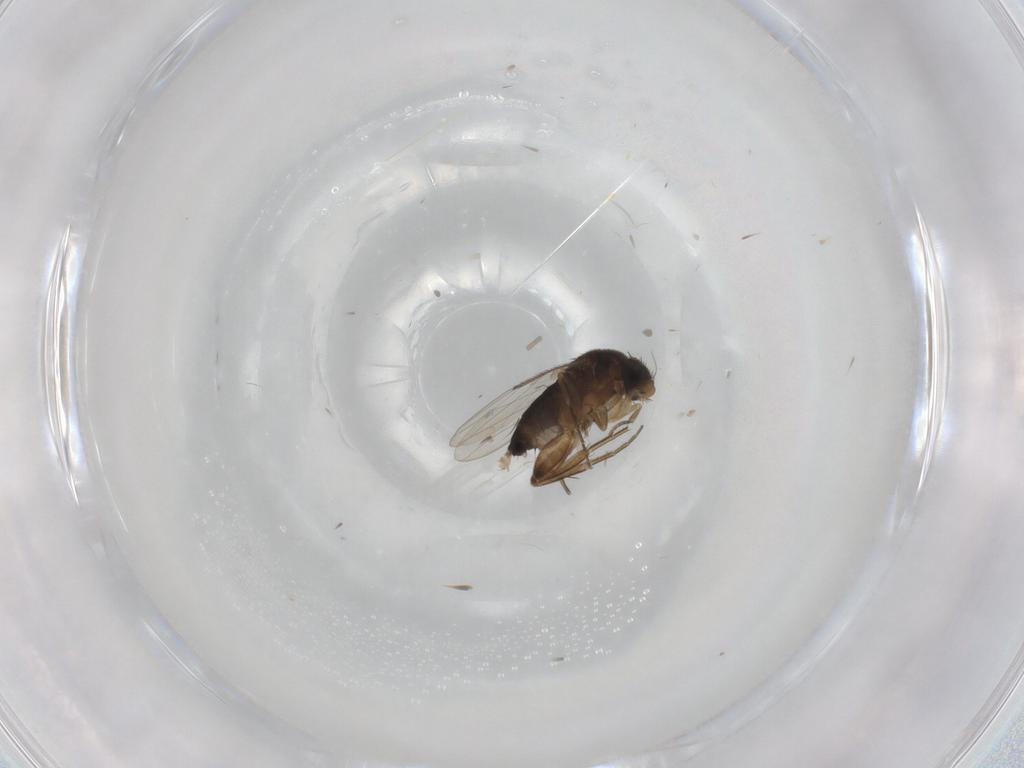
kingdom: Animalia
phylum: Arthropoda
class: Insecta
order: Diptera
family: Chironomidae
